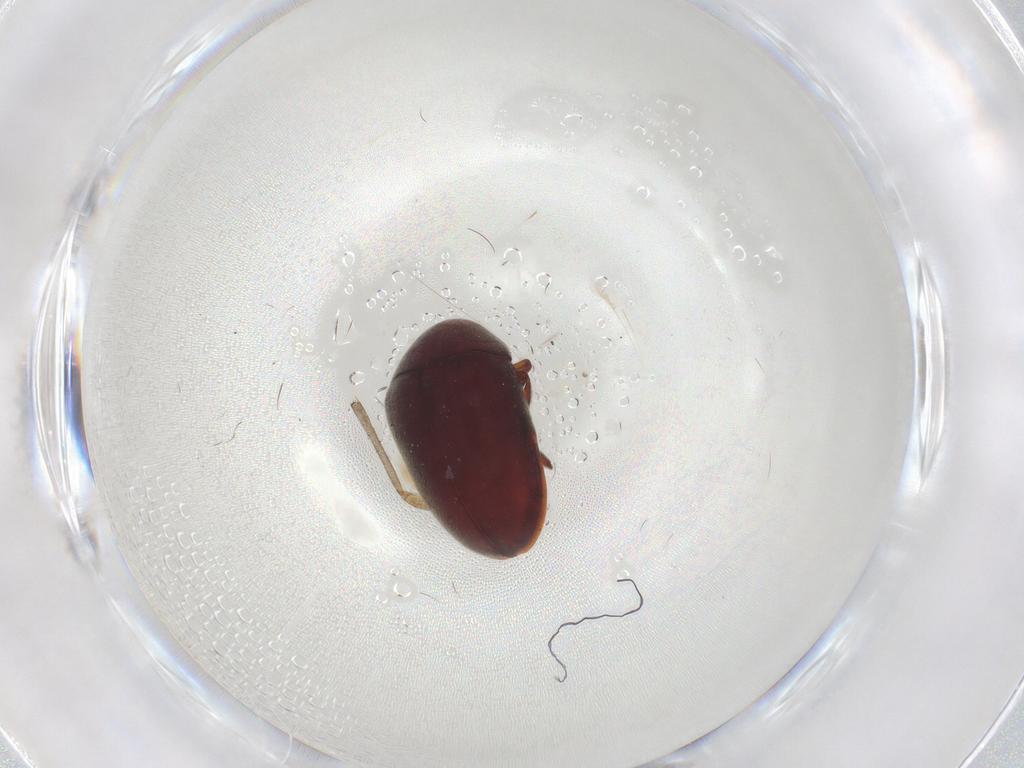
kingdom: Animalia
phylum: Arthropoda
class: Insecta
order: Coleoptera
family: Ptinidae
